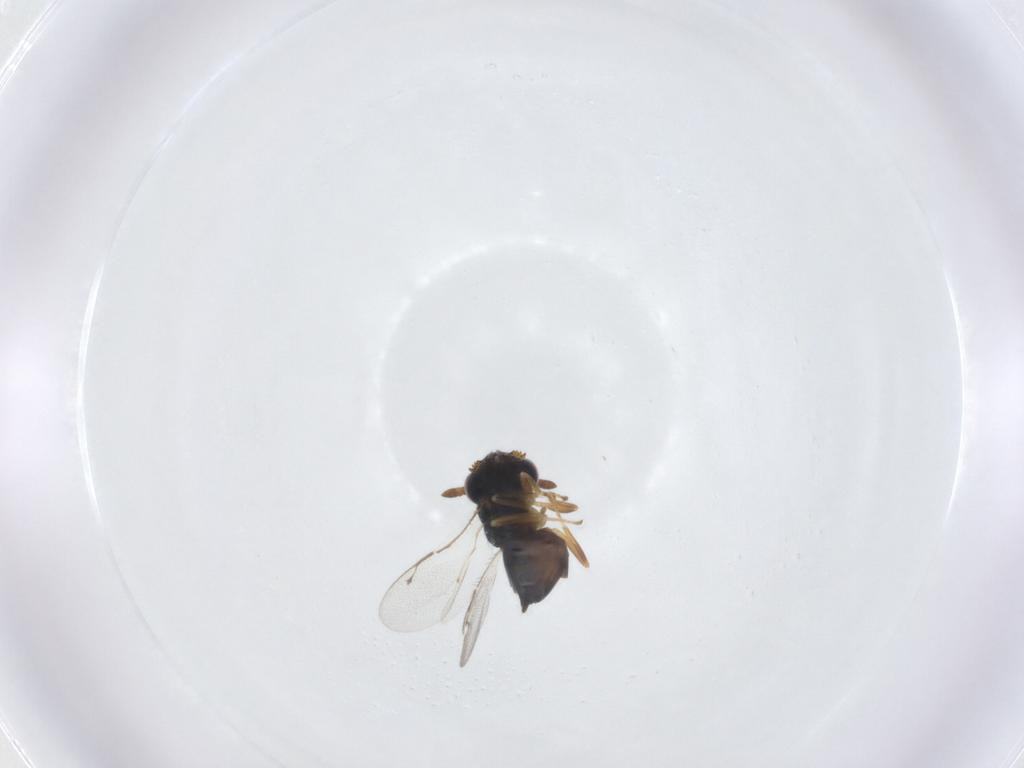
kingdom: Animalia
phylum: Arthropoda
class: Insecta
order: Hymenoptera
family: Pteromalidae
